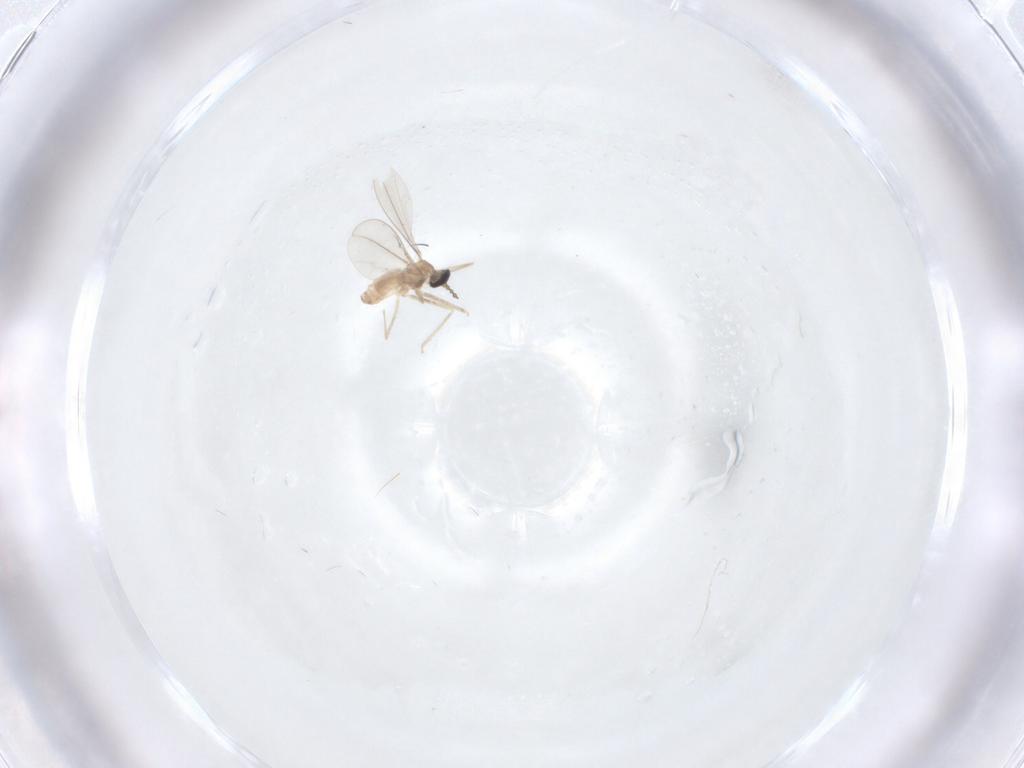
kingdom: Animalia
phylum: Arthropoda
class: Insecta
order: Diptera
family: Cecidomyiidae
